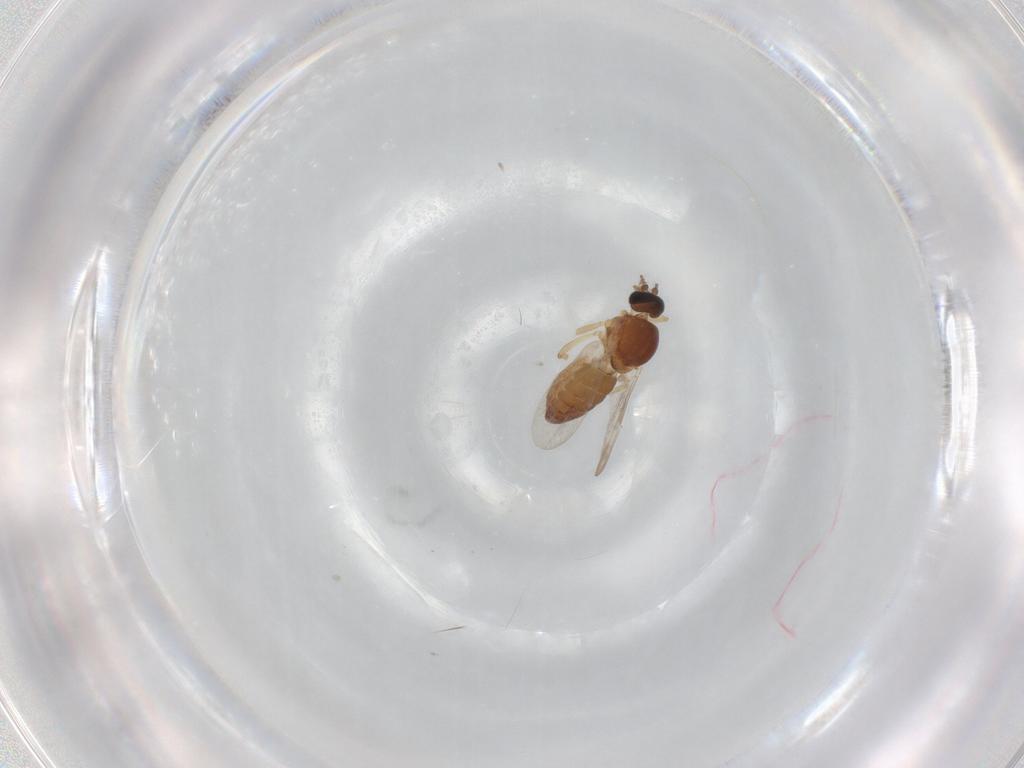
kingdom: Animalia
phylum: Arthropoda
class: Insecta
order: Diptera
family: Ceratopogonidae
